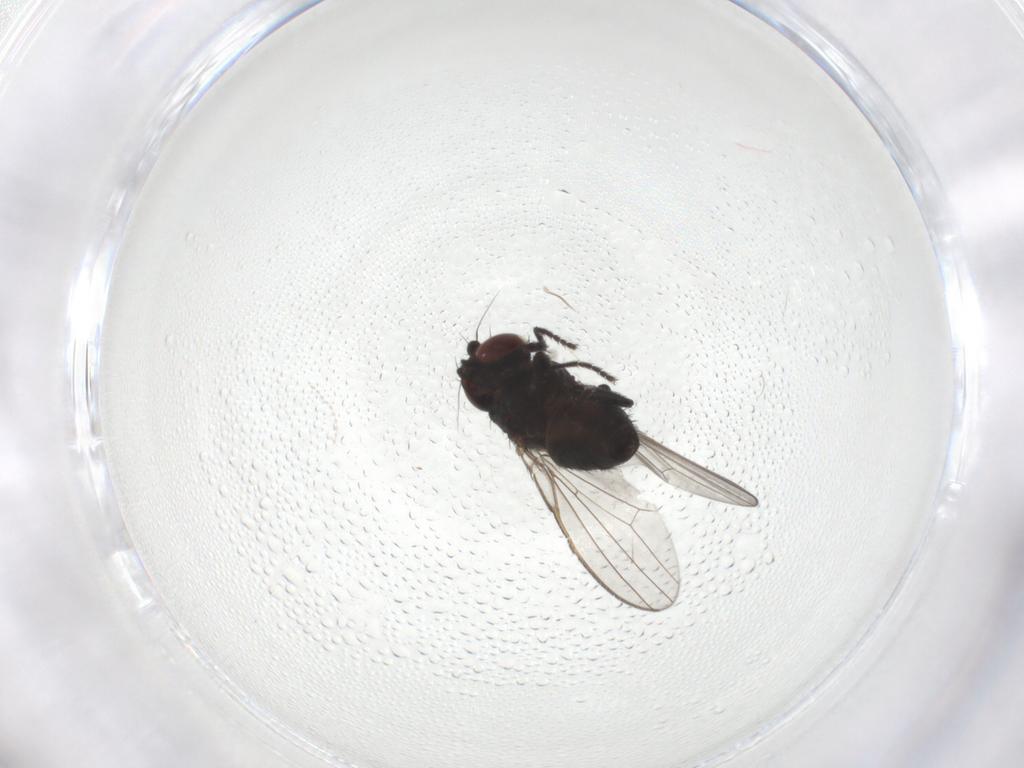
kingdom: Animalia
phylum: Arthropoda
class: Insecta
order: Diptera
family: Milichiidae
